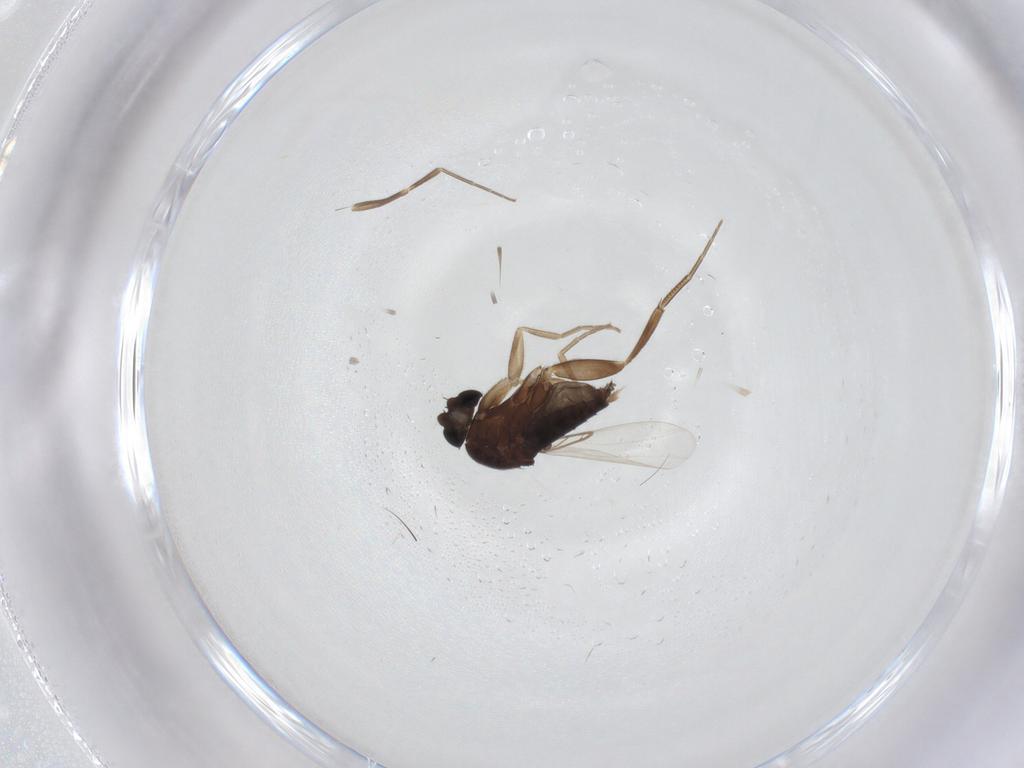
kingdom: Animalia
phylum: Arthropoda
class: Insecta
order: Diptera
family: Phoridae
